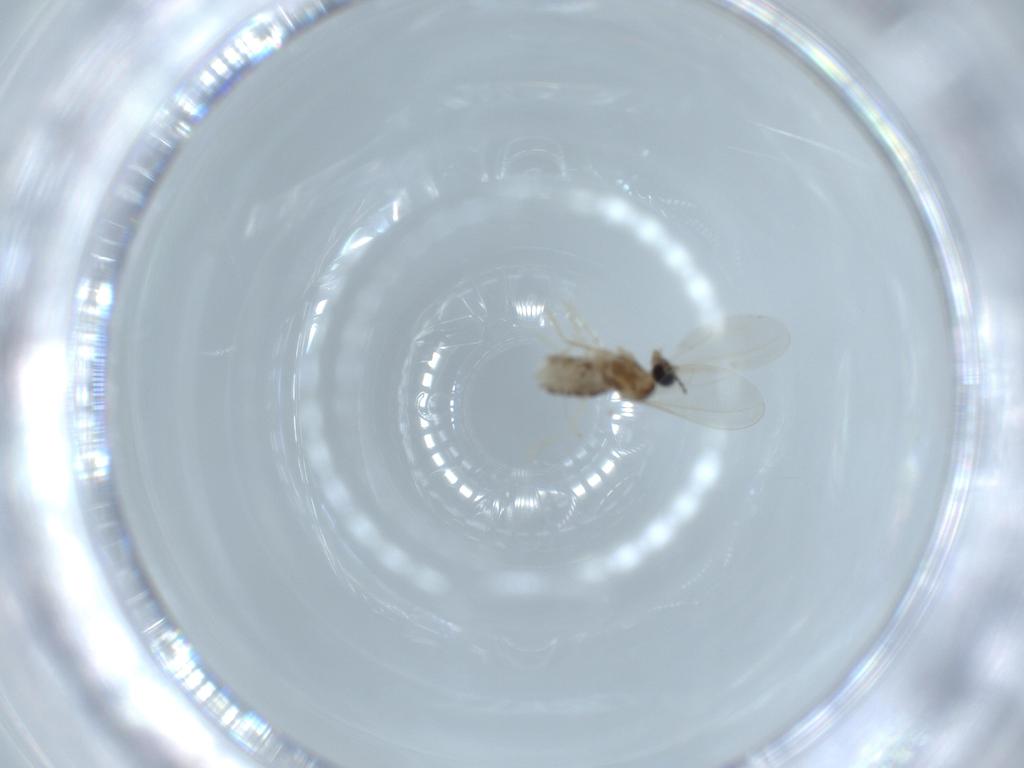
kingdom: Animalia
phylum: Arthropoda
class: Insecta
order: Diptera
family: Cecidomyiidae
